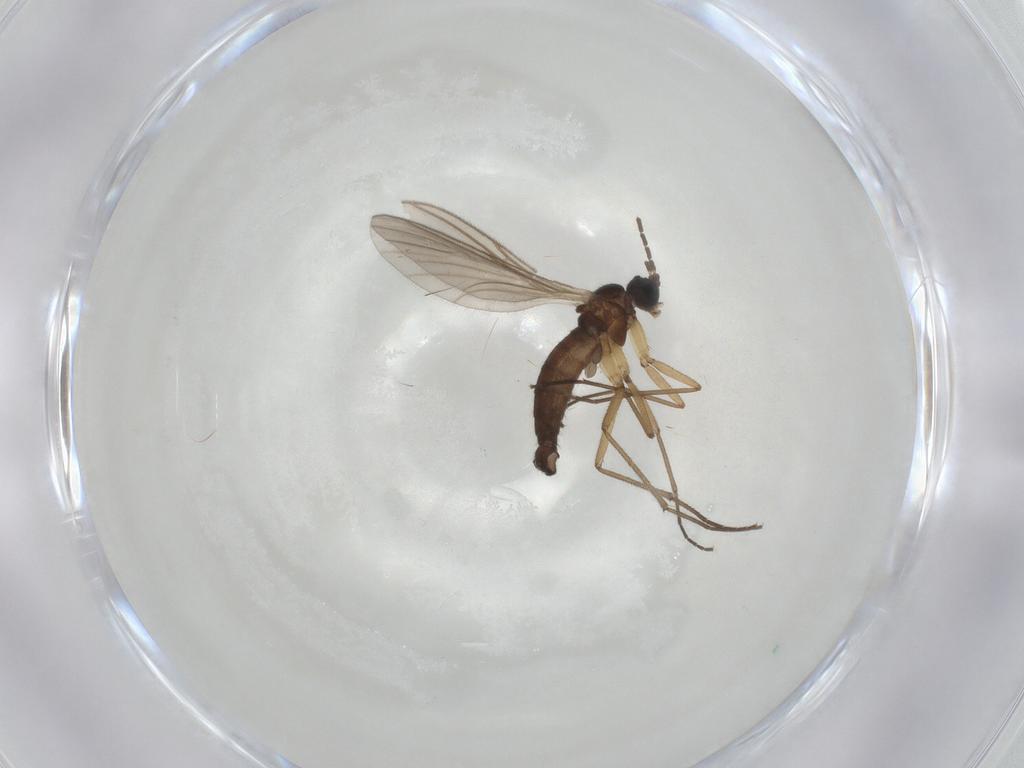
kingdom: Animalia
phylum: Arthropoda
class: Insecta
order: Diptera
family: Sciaridae
